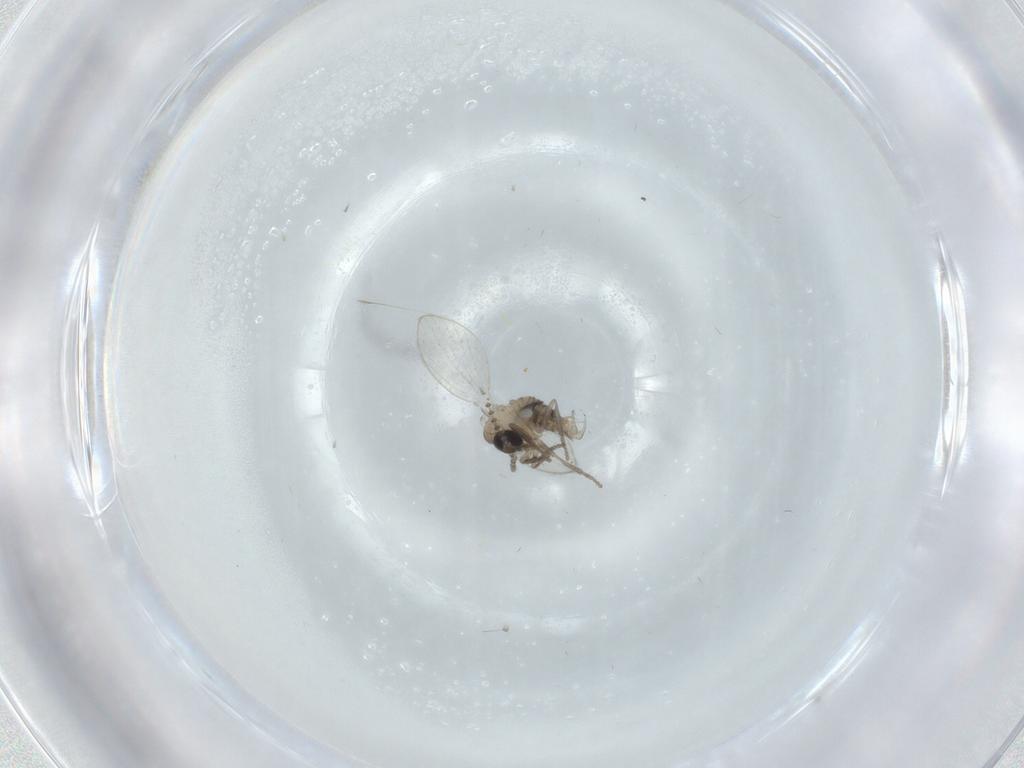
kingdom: Animalia
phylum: Arthropoda
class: Insecta
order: Diptera
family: Psychodidae
